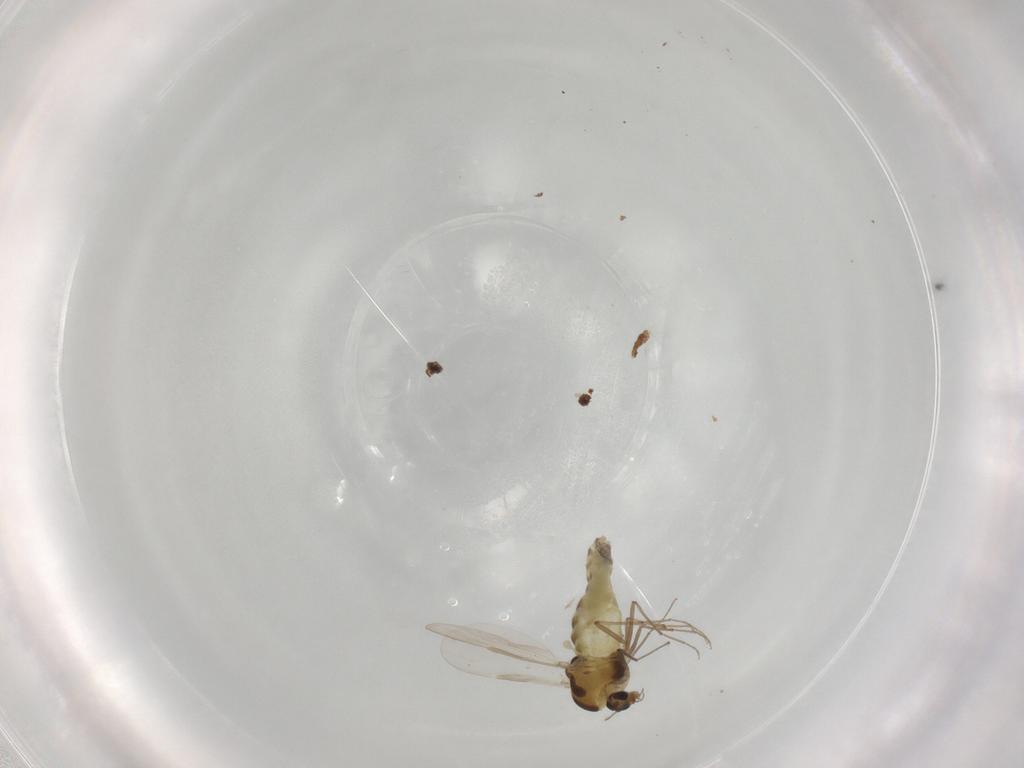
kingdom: Animalia
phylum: Arthropoda
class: Insecta
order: Diptera
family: Chironomidae
